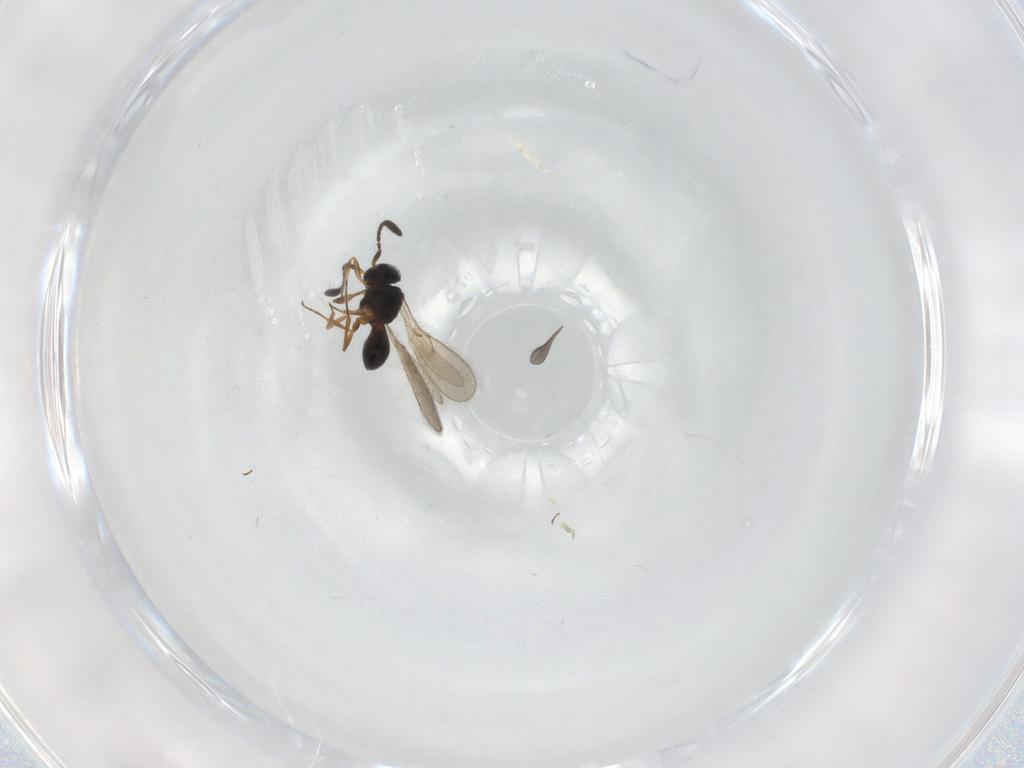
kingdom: Animalia
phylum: Arthropoda
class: Insecta
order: Hymenoptera
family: Scelionidae
